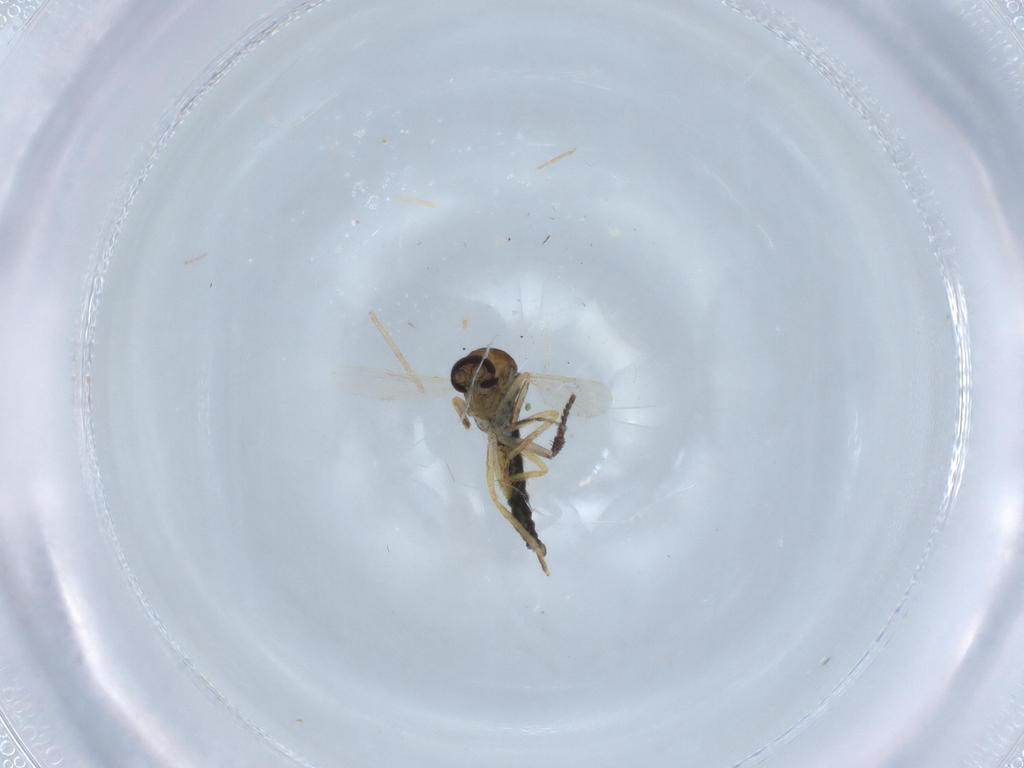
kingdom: Animalia
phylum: Arthropoda
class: Insecta
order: Diptera
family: Ceratopogonidae
